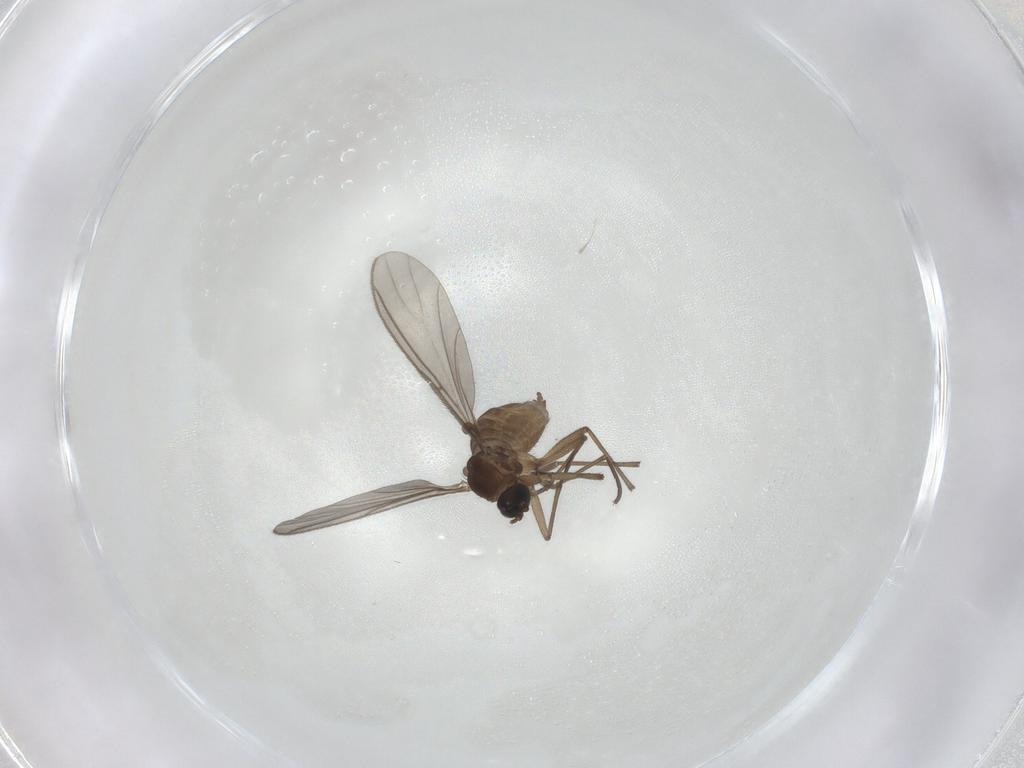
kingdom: Animalia
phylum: Arthropoda
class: Insecta
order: Diptera
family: Sciaridae
